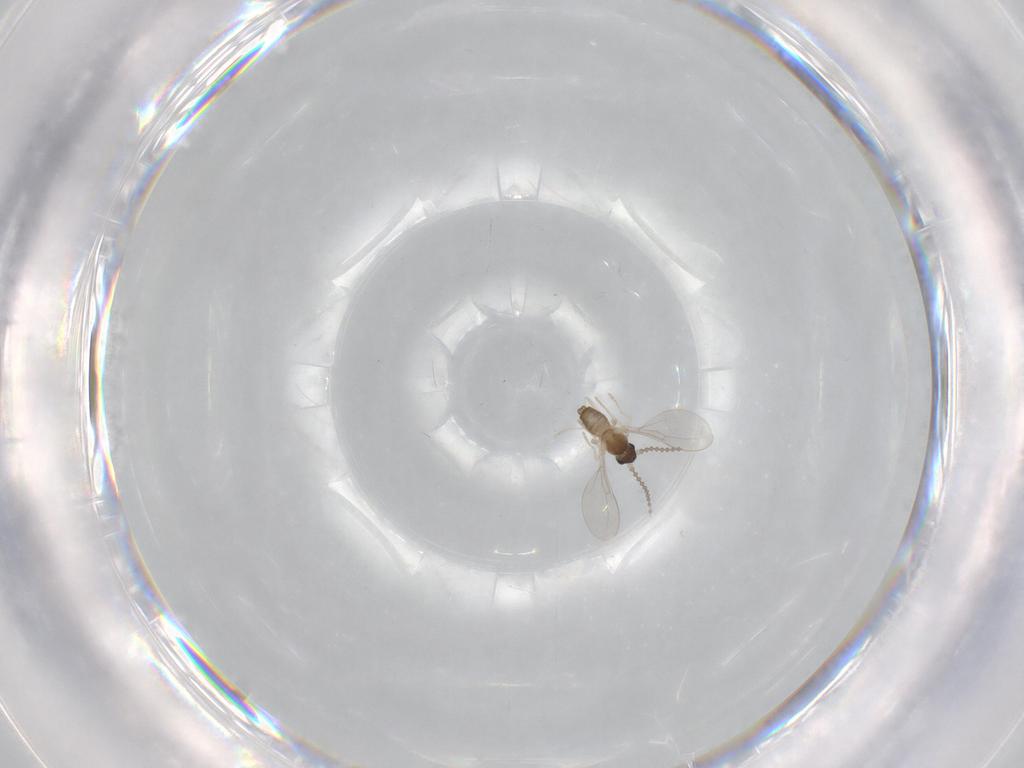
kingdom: Animalia
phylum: Arthropoda
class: Insecta
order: Diptera
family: Cecidomyiidae
